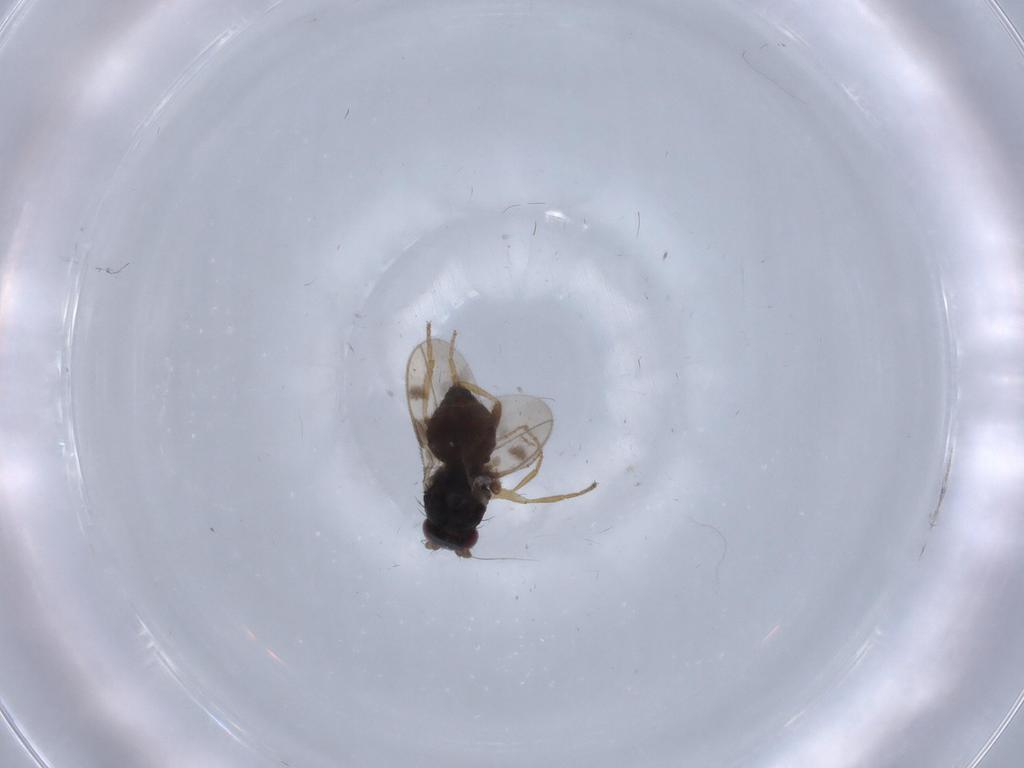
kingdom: Animalia
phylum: Arthropoda
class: Insecta
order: Diptera
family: Sphaeroceridae
